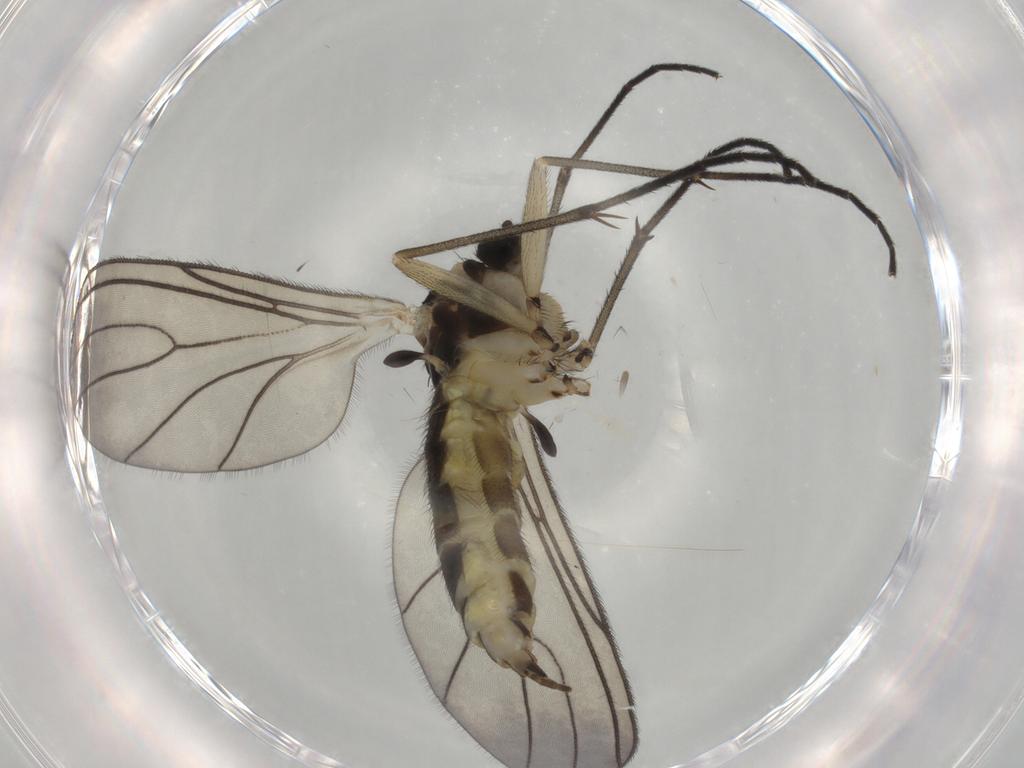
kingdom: Animalia
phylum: Arthropoda
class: Insecta
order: Diptera
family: Sciaridae
